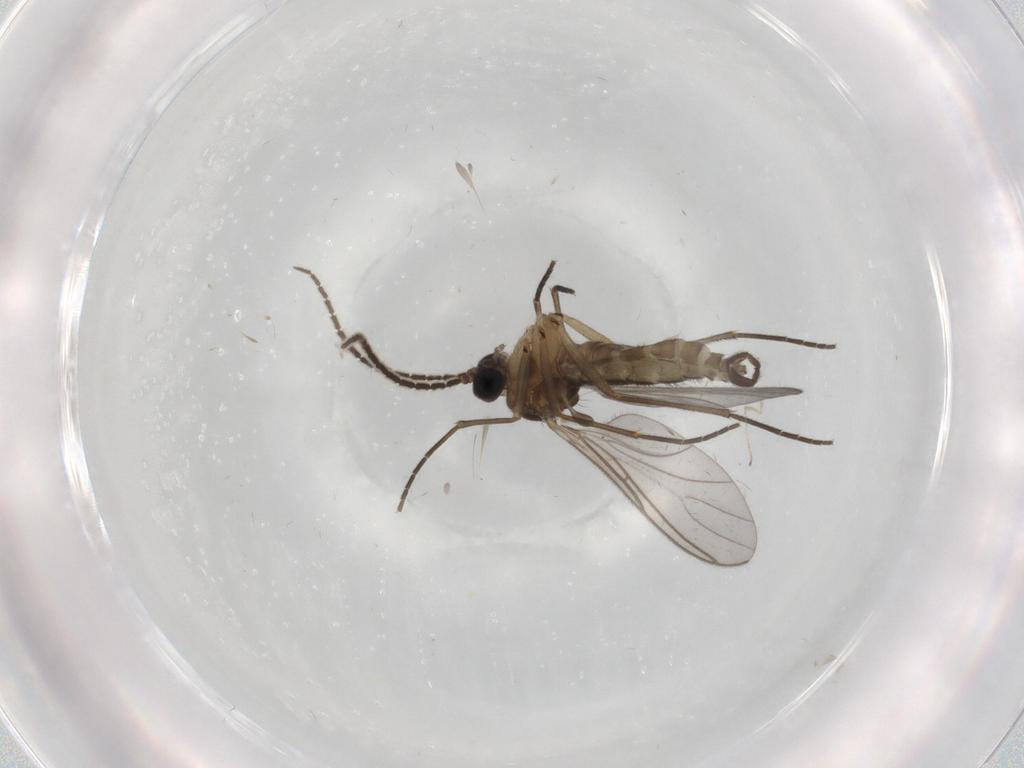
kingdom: Animalia
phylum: Arthropoda
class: Insecta
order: Diptera
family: Sciaridae
